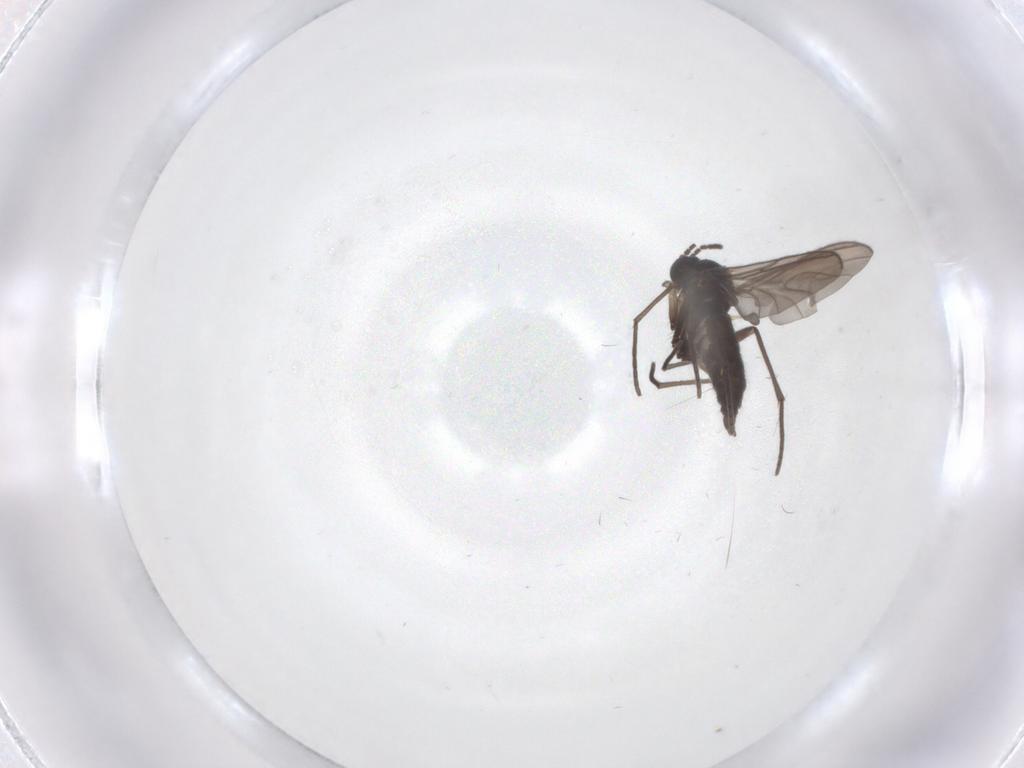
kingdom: Animalia
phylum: Arthropoda
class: Insecta
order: Diptera
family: Sciaridae
